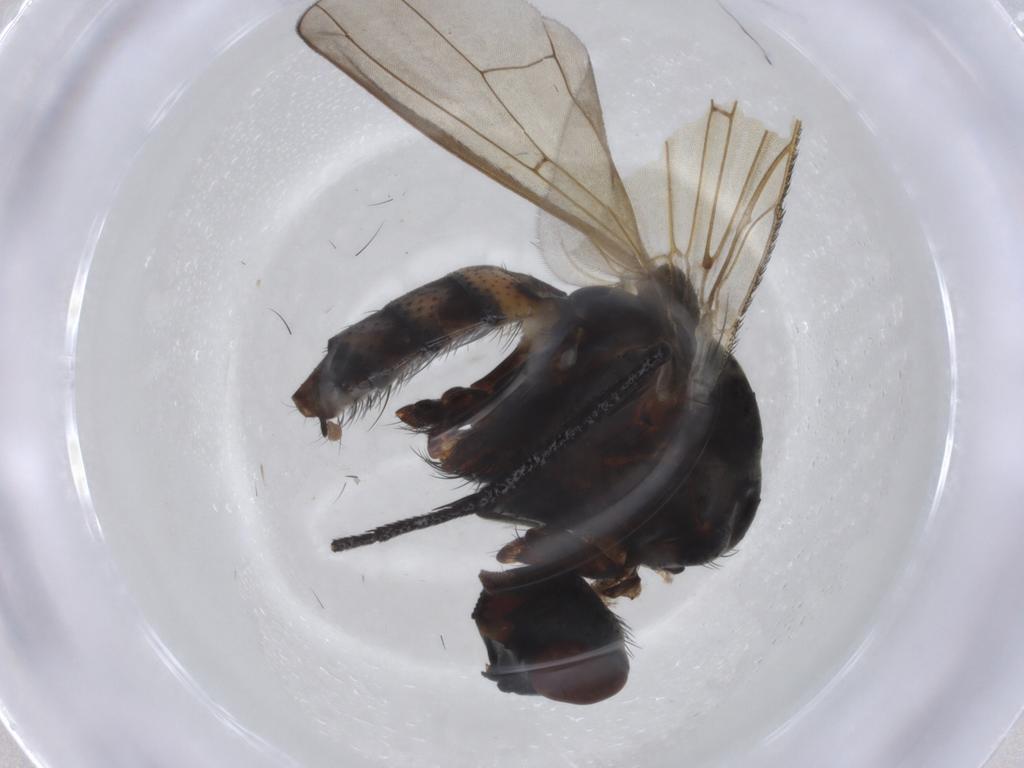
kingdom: Animalia
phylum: Arthropoda
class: Insecta
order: Diptera
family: Anthomyiidae
